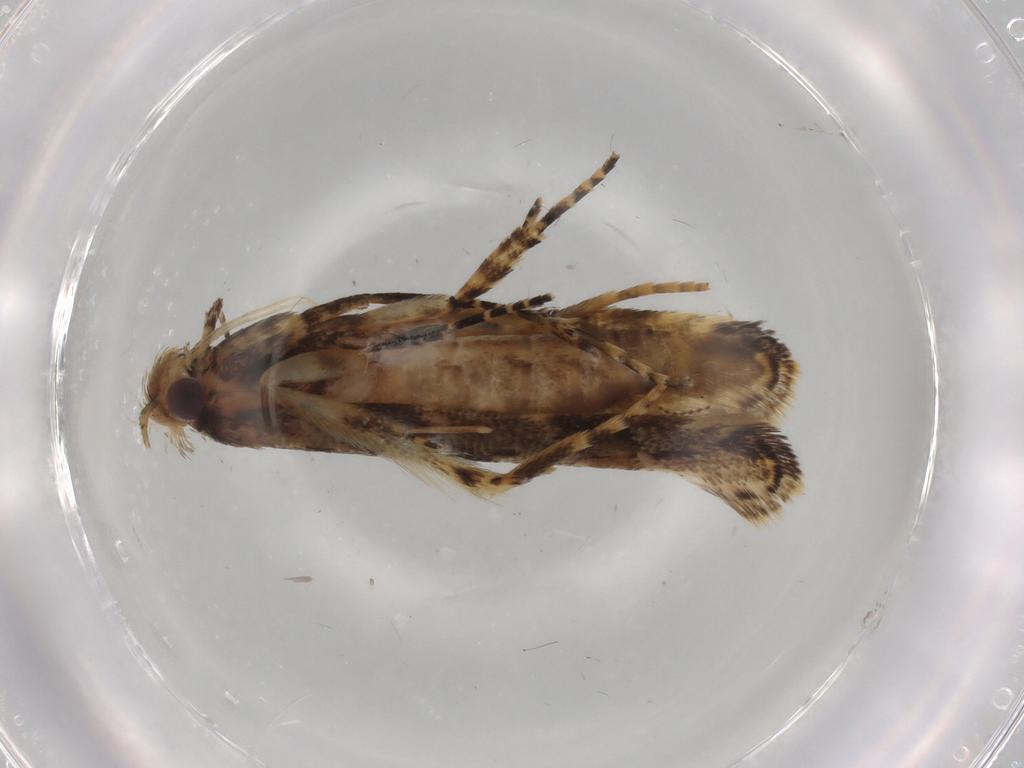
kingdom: Animalia
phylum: Arthropoda
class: Insecta
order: Lepidoptera
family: Gelechiidae
